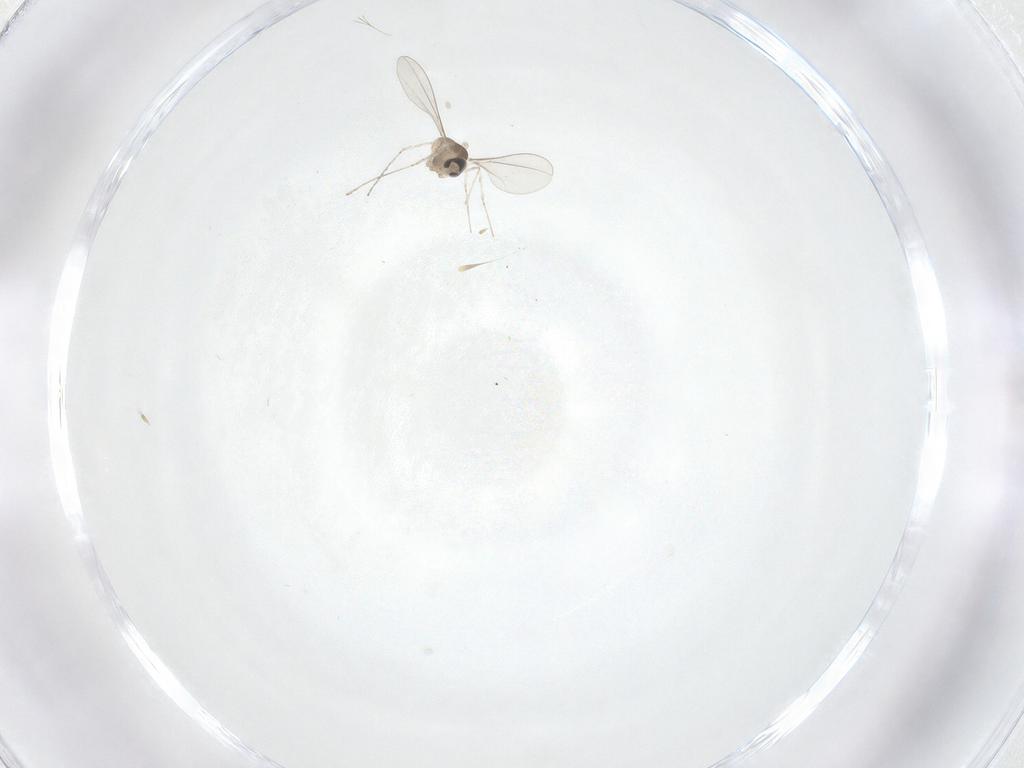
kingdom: Animalia
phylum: Arthropoda
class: Insecta
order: Diptera
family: Cecidomyiidae
